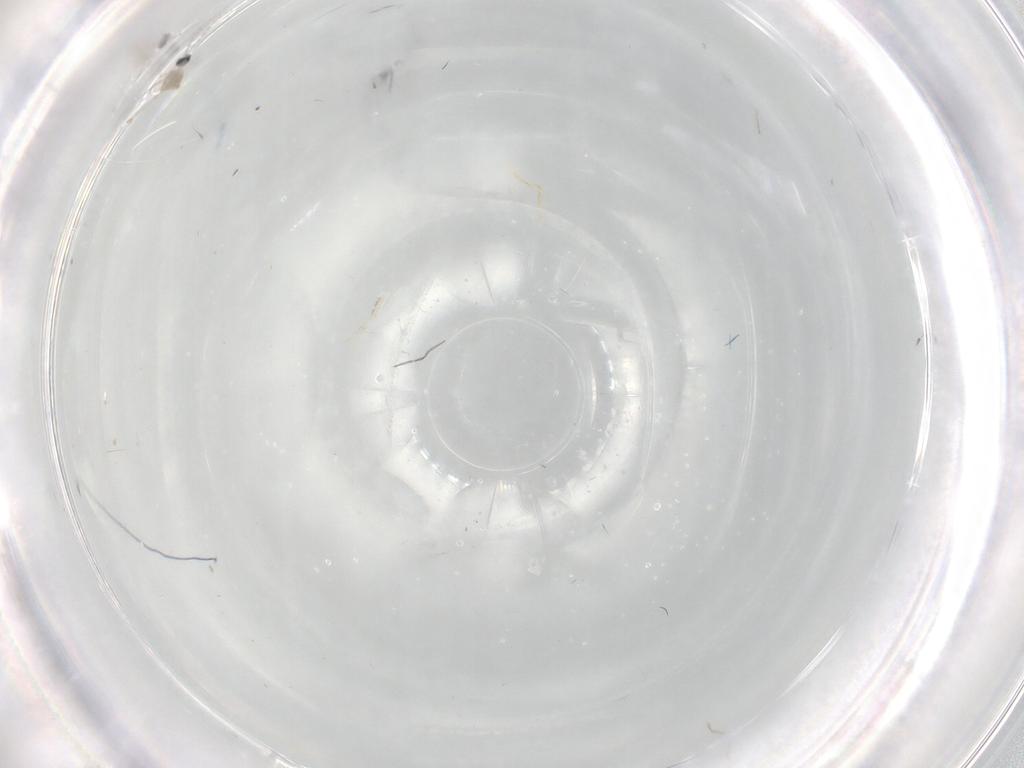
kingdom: Animalia
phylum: Arthropoda
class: Insecta
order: Diptera
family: Cecidomyiidae
